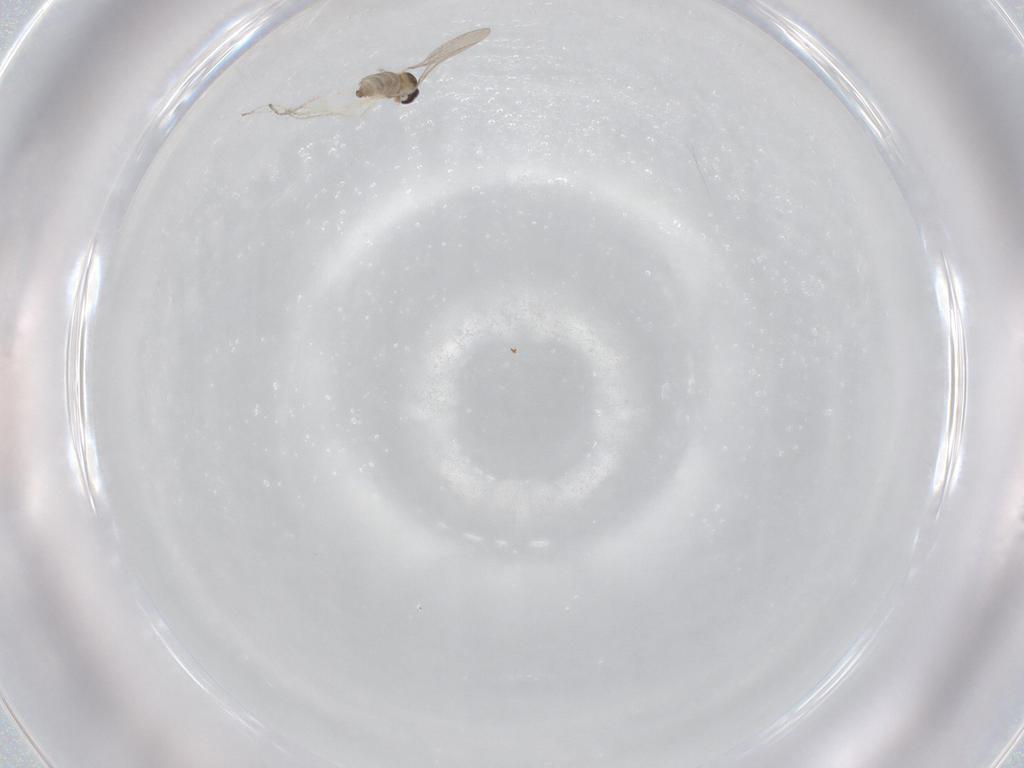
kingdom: Animalia
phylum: Arthropoda
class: Insecta
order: Diptera
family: Cecidomyiidae
